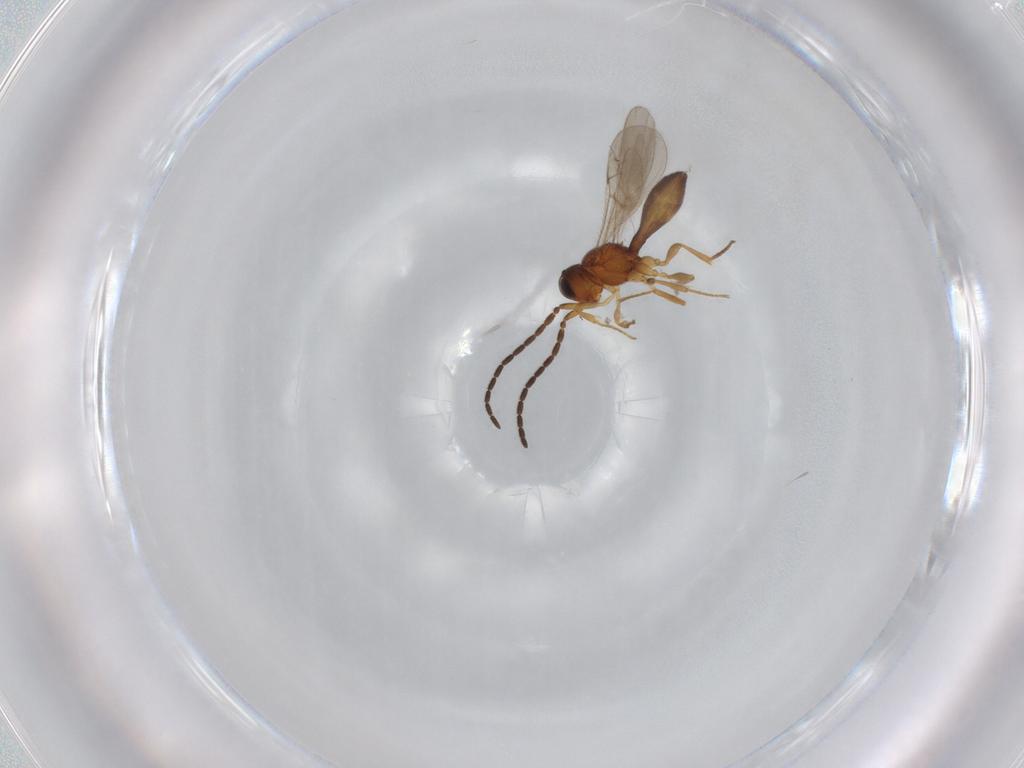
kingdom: Animalia
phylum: Arthropoda
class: Insecta
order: Hymenoptera
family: Scelionidae
